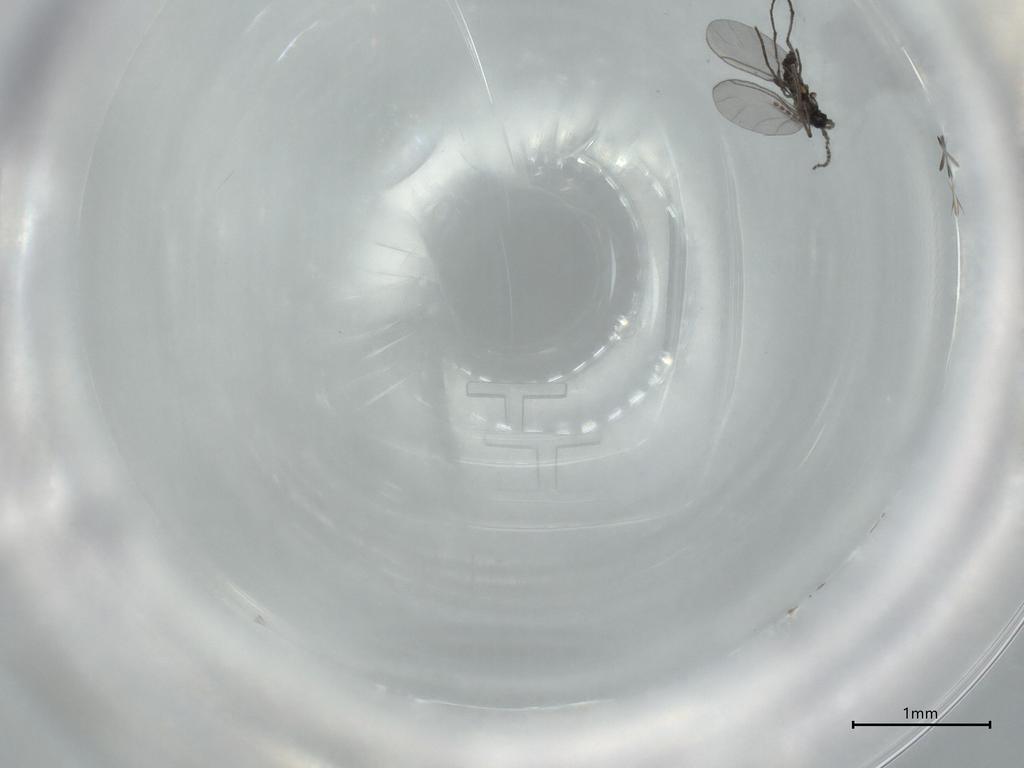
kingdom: Animalia
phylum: Arthropoda
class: Insecta
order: Diptera
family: Sciaridae
